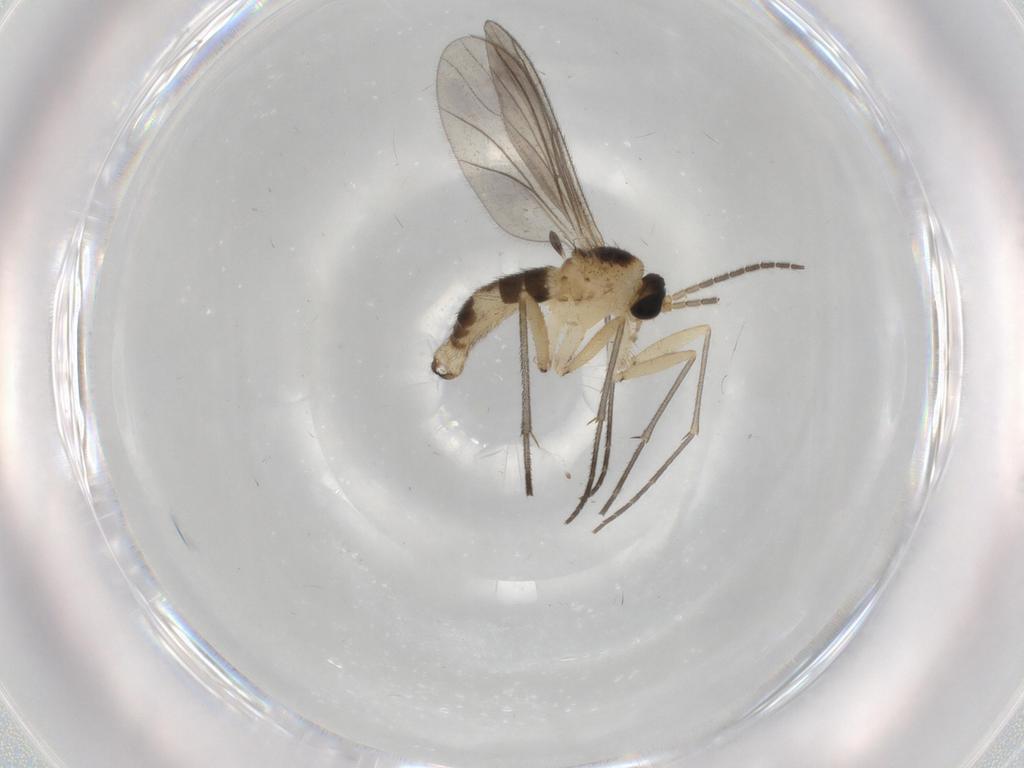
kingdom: Animalia
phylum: Arthropoda
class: Insecta
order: Diptera
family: Sciaridae
